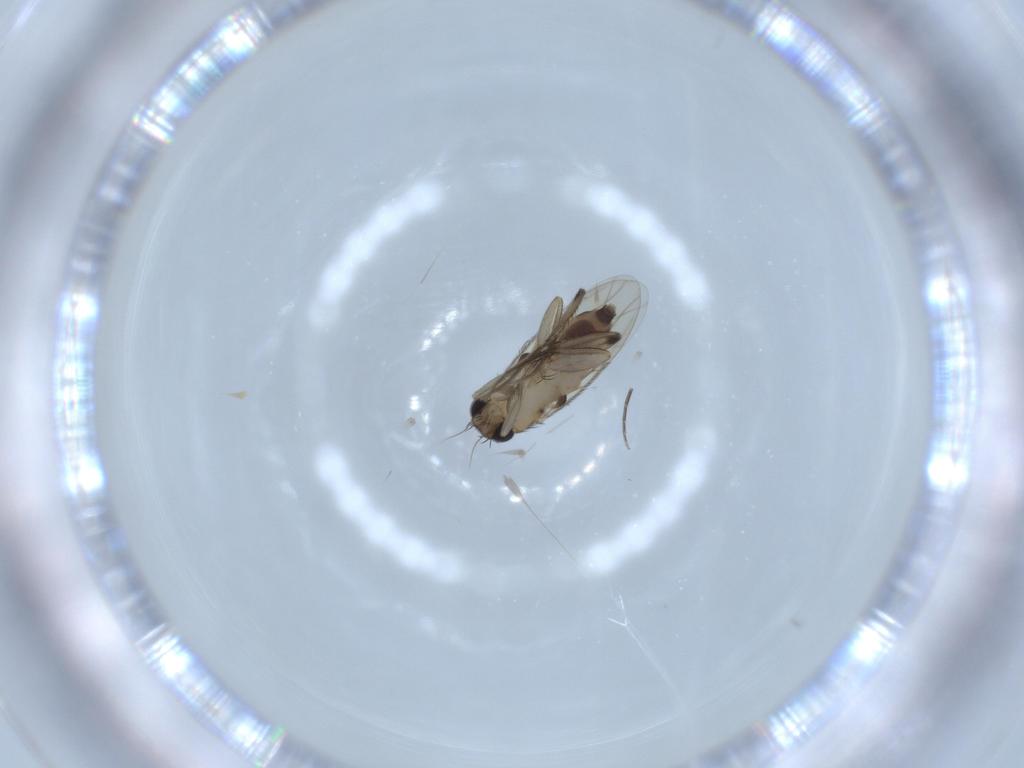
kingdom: Animalia
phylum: Arthropoda
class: Insecta
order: Diptera
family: Phoridae
